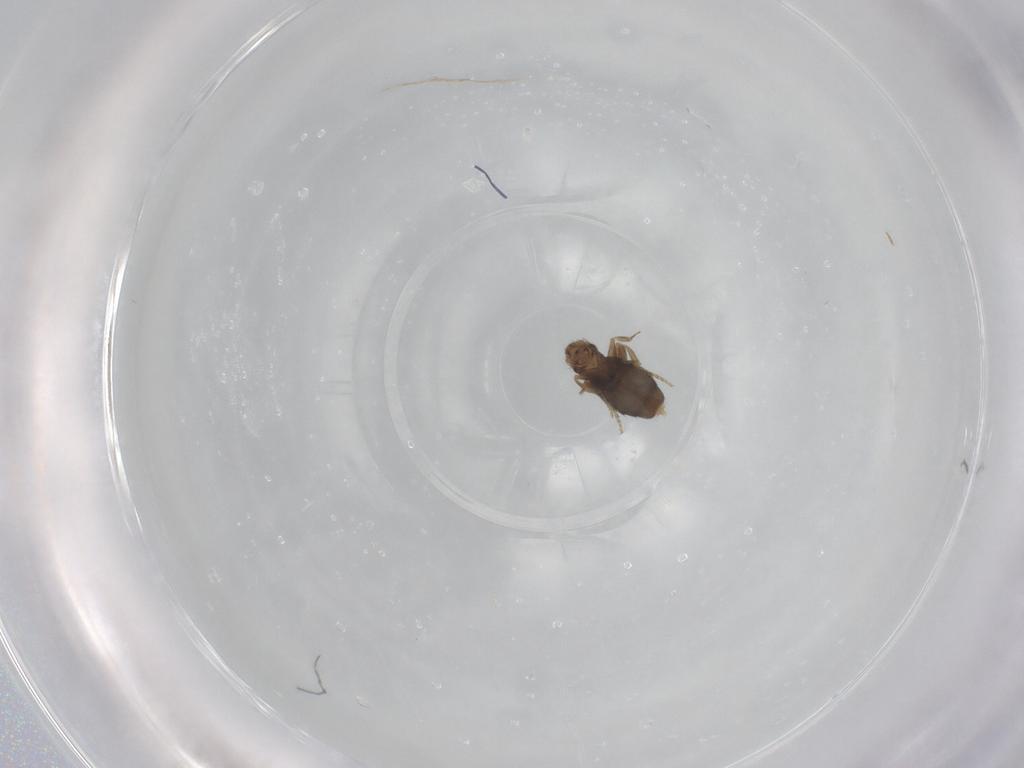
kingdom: Animalia
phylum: Arthropoda
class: Insecta
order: Diptera
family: Phoridae
